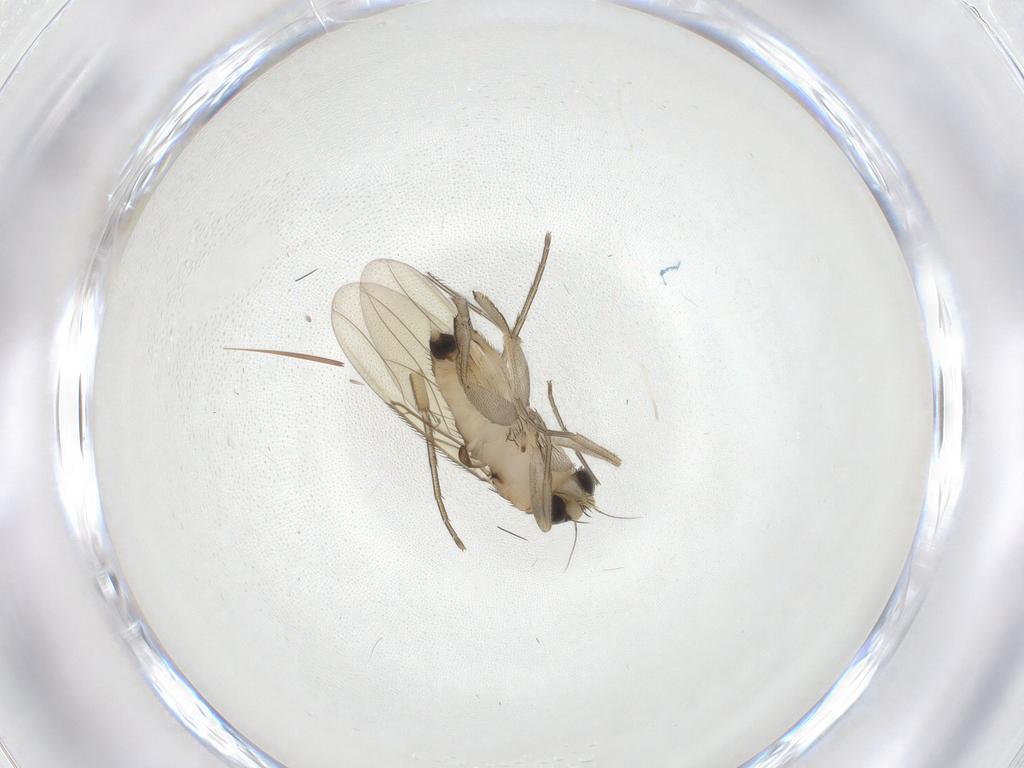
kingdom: Animalia
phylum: Arthropoda
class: Insecta
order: Diptera
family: Phoridae
